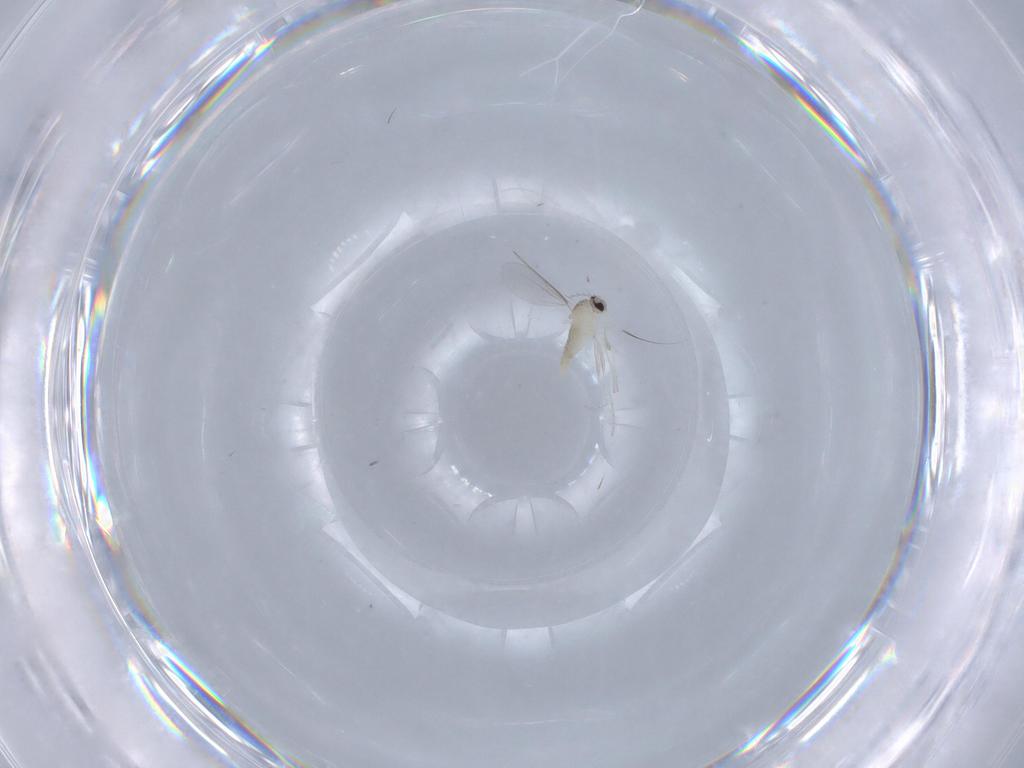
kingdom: Animalia
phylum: Arthropoda
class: Insecta
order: Diptera
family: Cecidomyiidae
